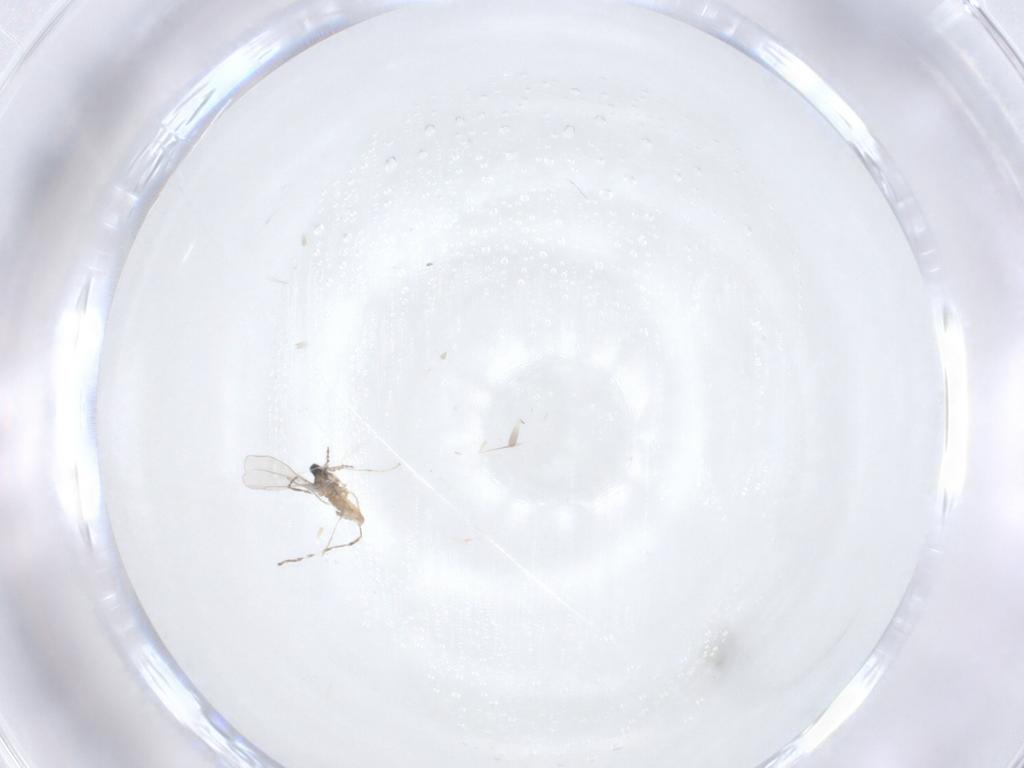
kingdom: Animalia
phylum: Arthropoda
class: Insecta
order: Diptera
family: Cecidomyiidae
